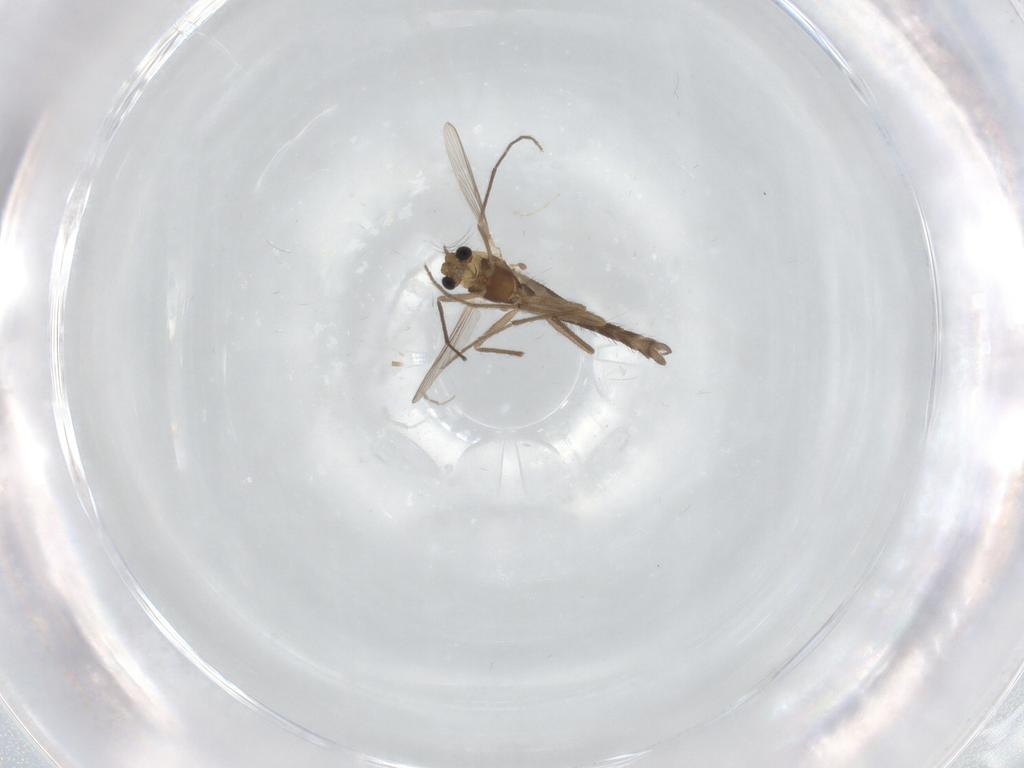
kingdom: Animalia
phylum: Arthropoda
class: Insecta
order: Diptera
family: Chironomidae
